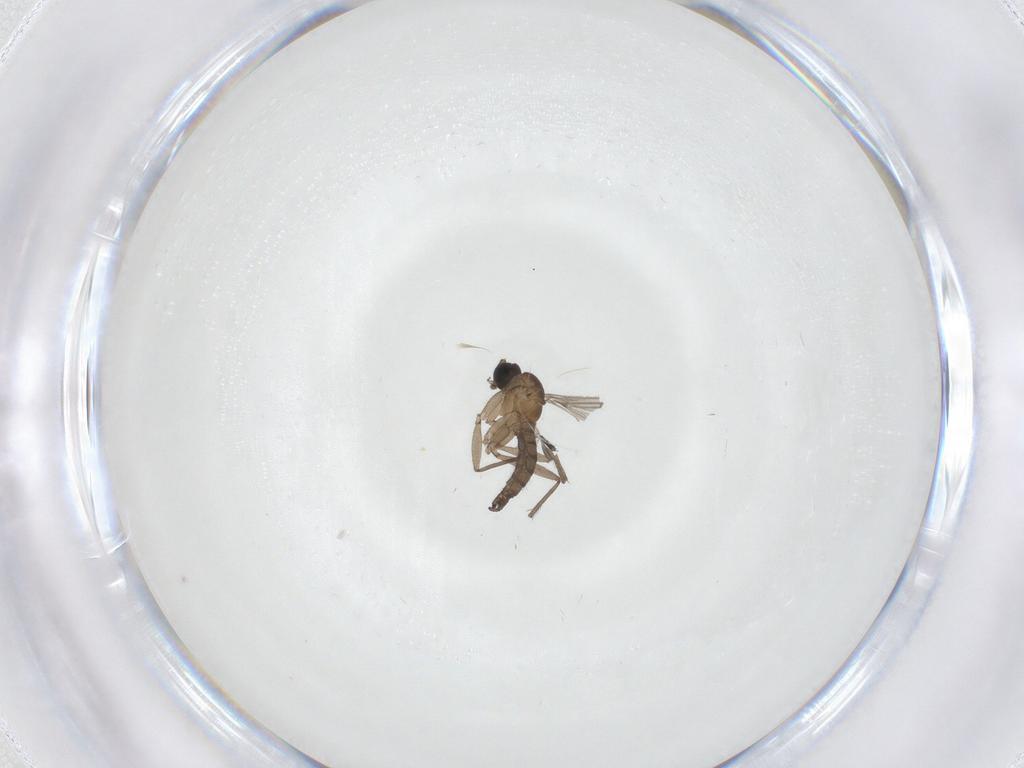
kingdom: Animalia
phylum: Arthropoda
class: Insecta
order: Diptera
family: Sciaridae
